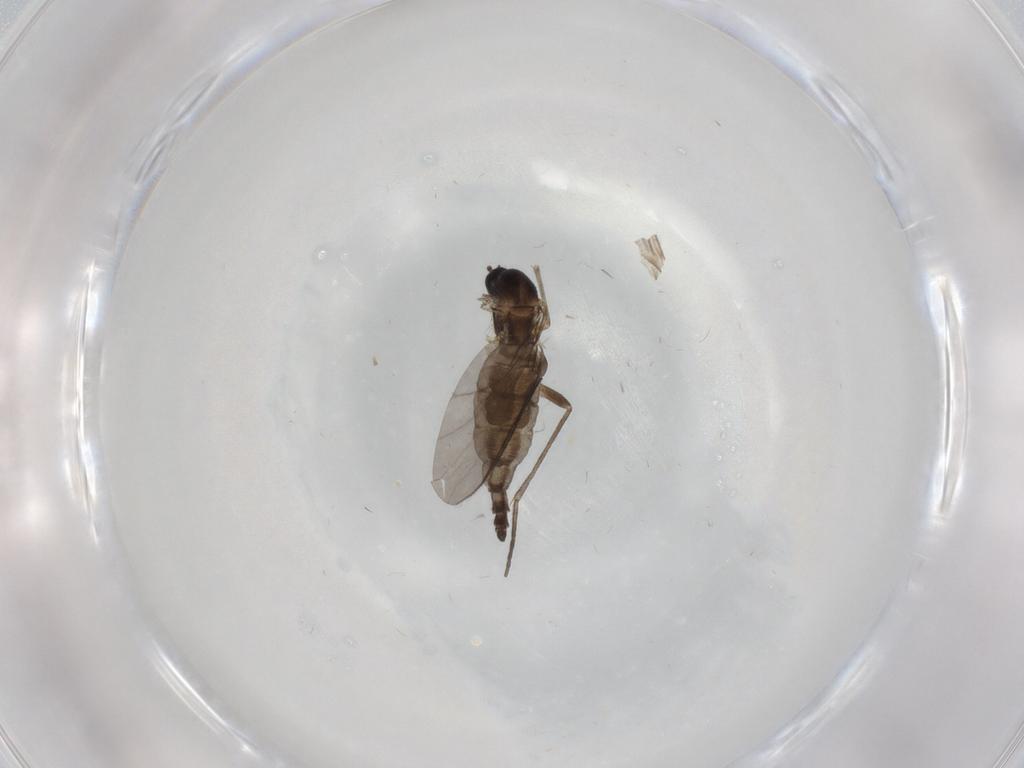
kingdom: Animalia
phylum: Arthropoda
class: Insecta
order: Diptera
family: Sciaridae
